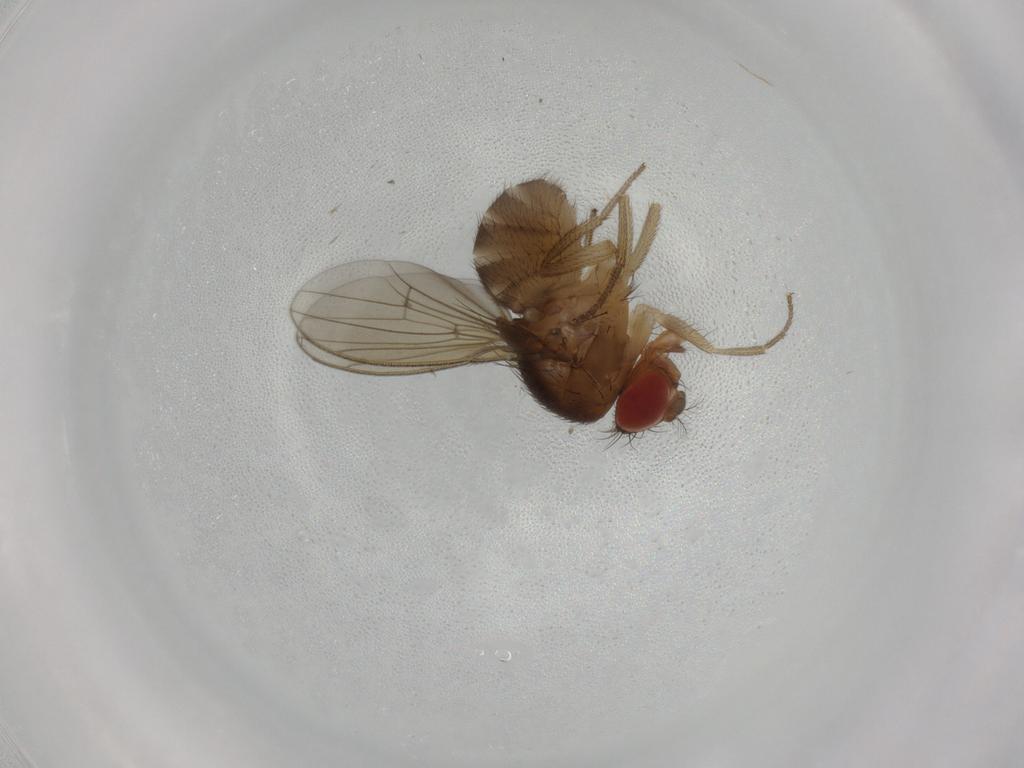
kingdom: Animalia
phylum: Arthropoda
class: Insecta
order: Diptera
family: Drosophilidae
